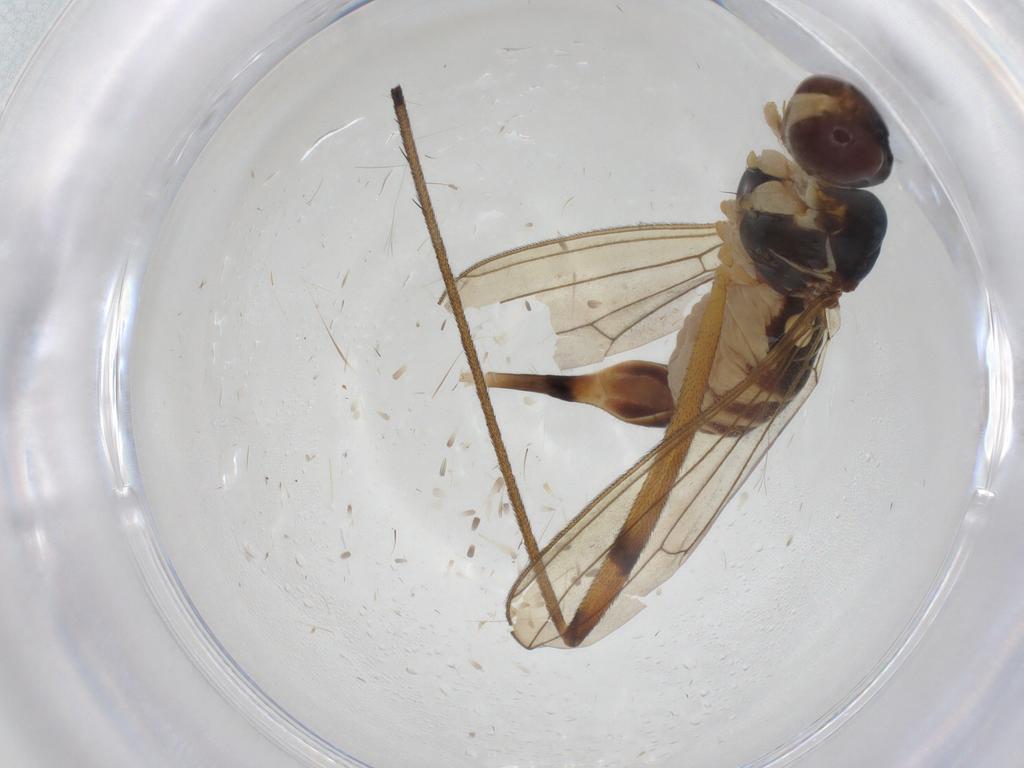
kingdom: Animalia
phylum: Arthropoda
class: Insecta
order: Diptera
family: Micropezidae
